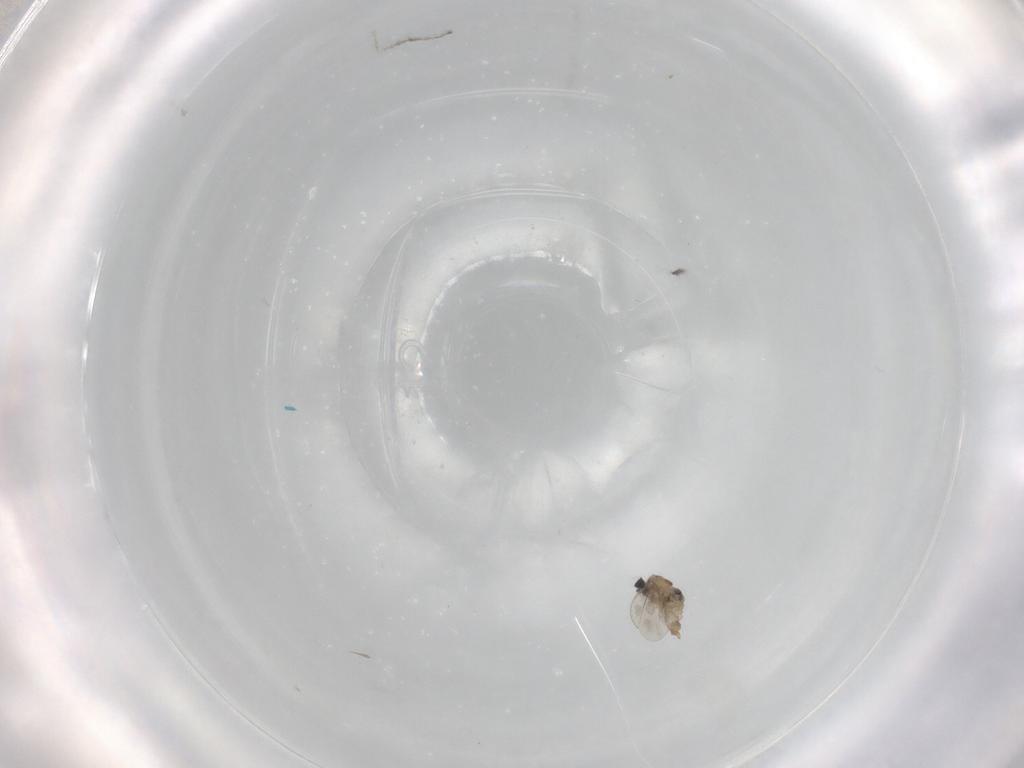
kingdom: Animalia
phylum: Arthropoda
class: Insecta
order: Diptera
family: Cecidomyiidae
